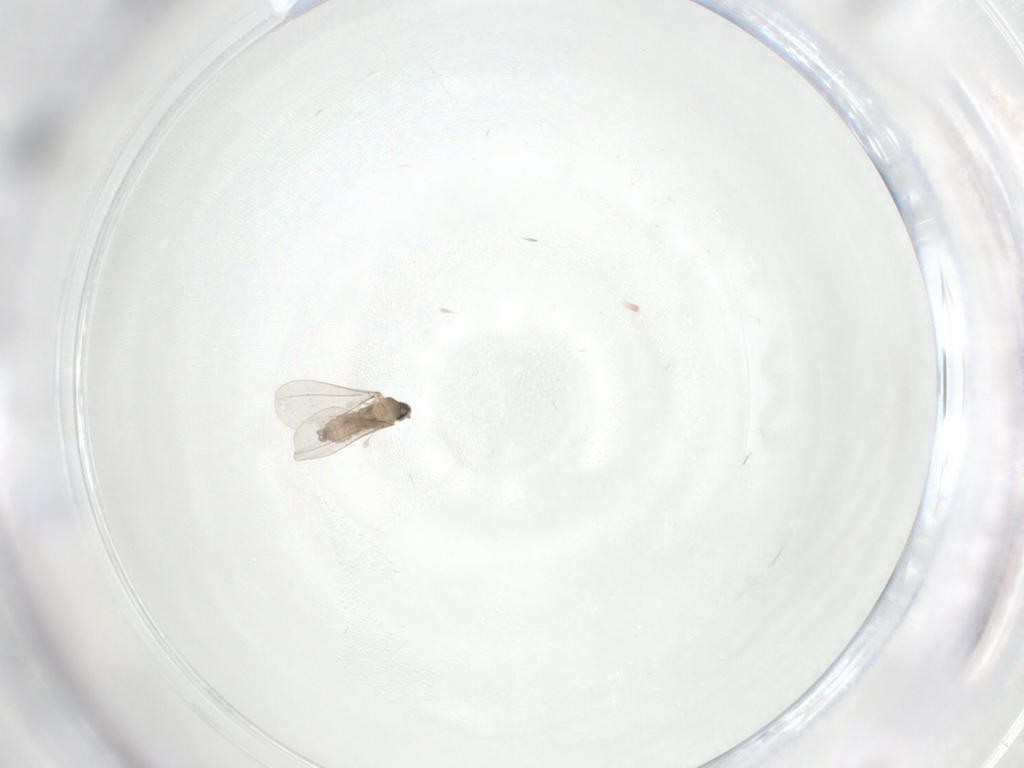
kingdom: Animalia
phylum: Arthropoda
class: Insecta
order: Diptera
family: Dolichopodidae
